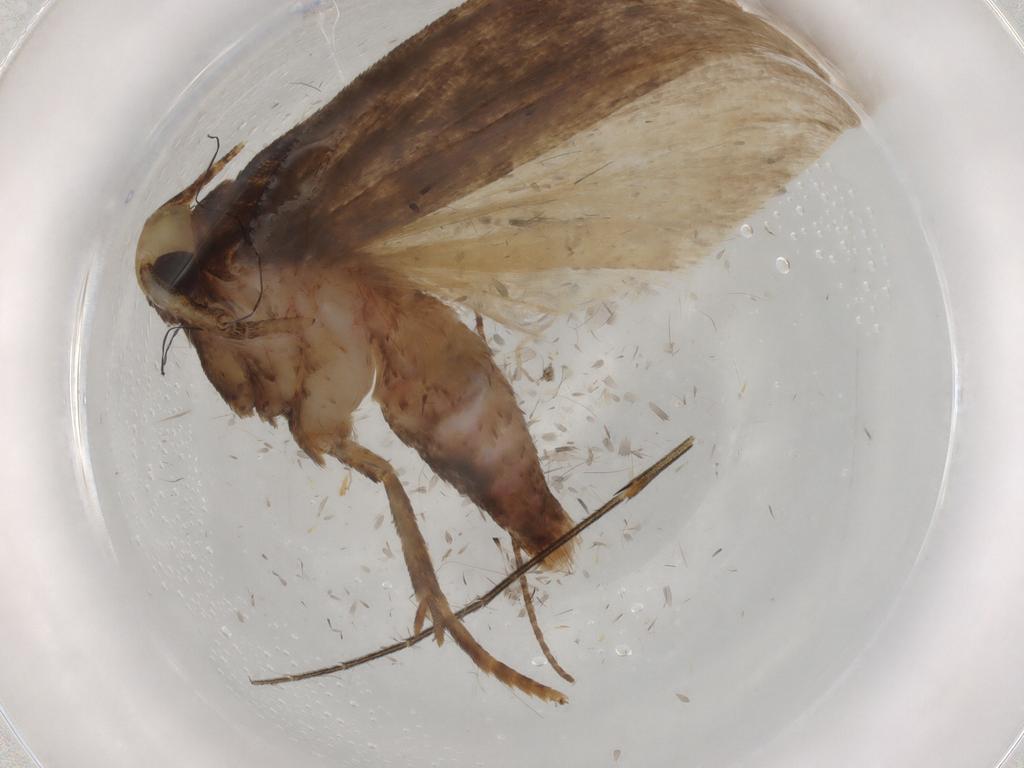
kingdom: Animalia
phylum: Arthropoda
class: Insecta
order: Lepidoptera
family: Autostichidae
